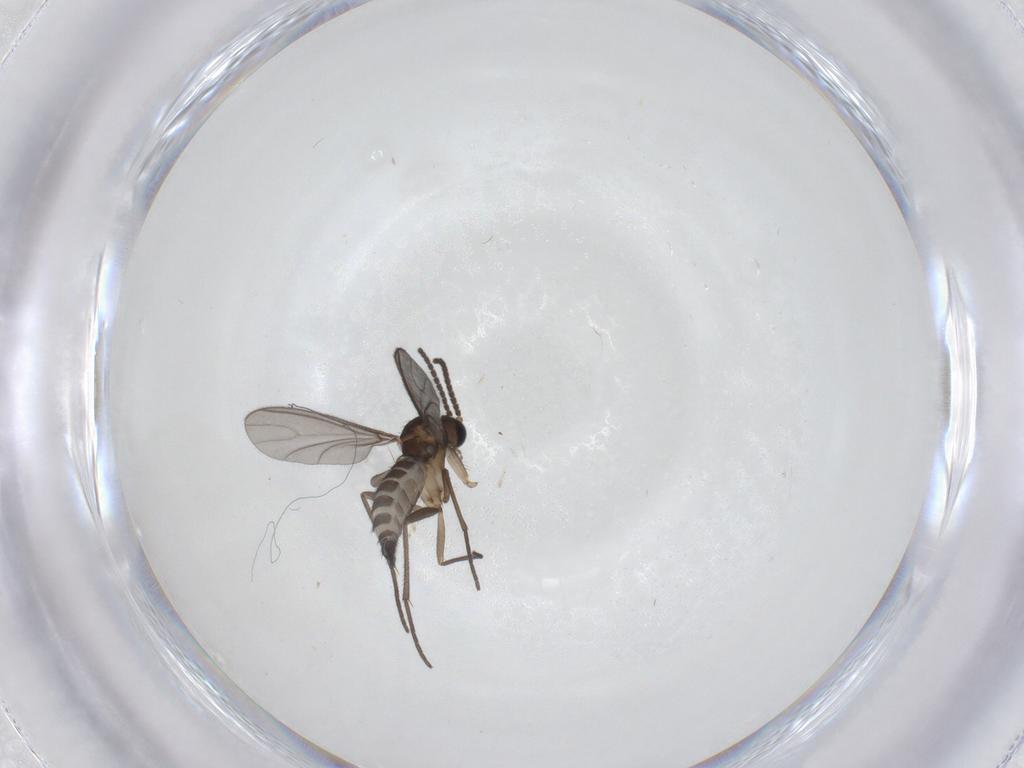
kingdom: Animalia
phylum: Arthropoda
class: Insecta
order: Diptera
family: Sciaridae
